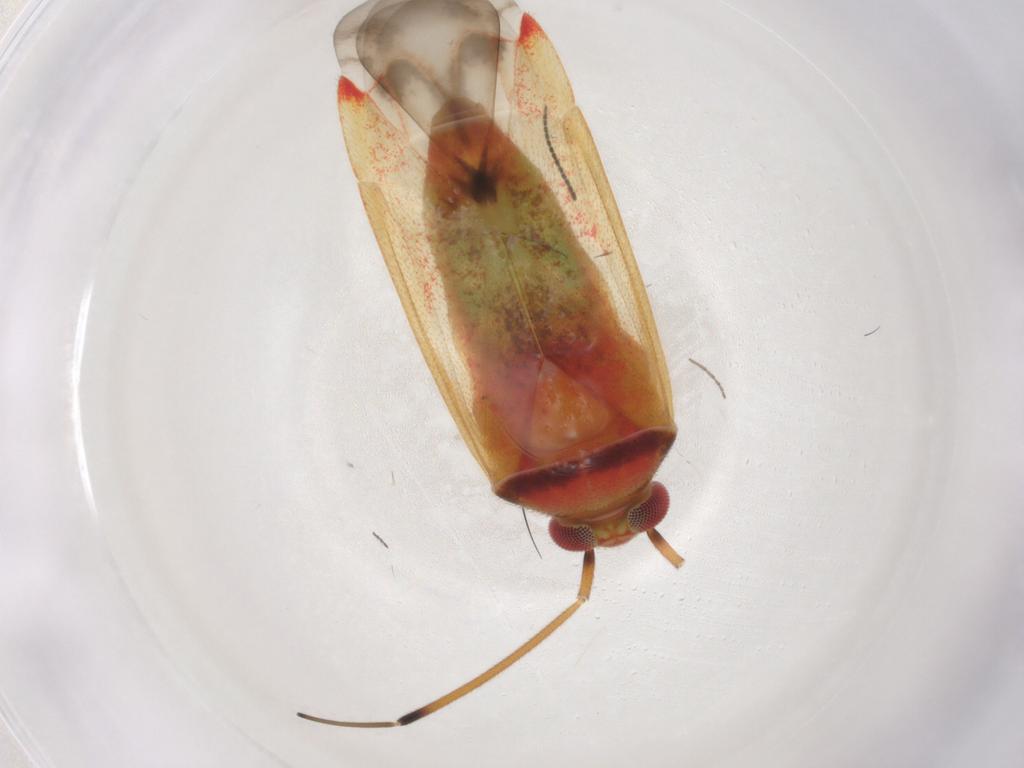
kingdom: Animalia
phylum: Arthropoda
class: Insecta
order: Hemiptera
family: Miridae
